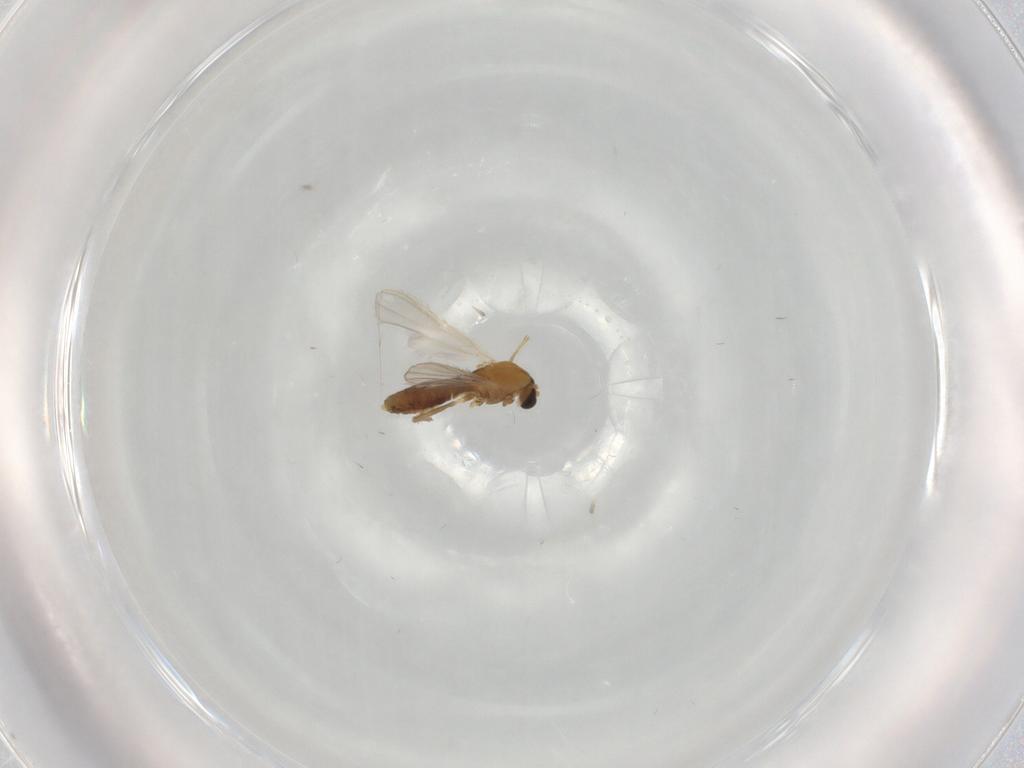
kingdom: Animalia
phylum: Arthropoda
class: Insecta
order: Diptera
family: Chironomidae
